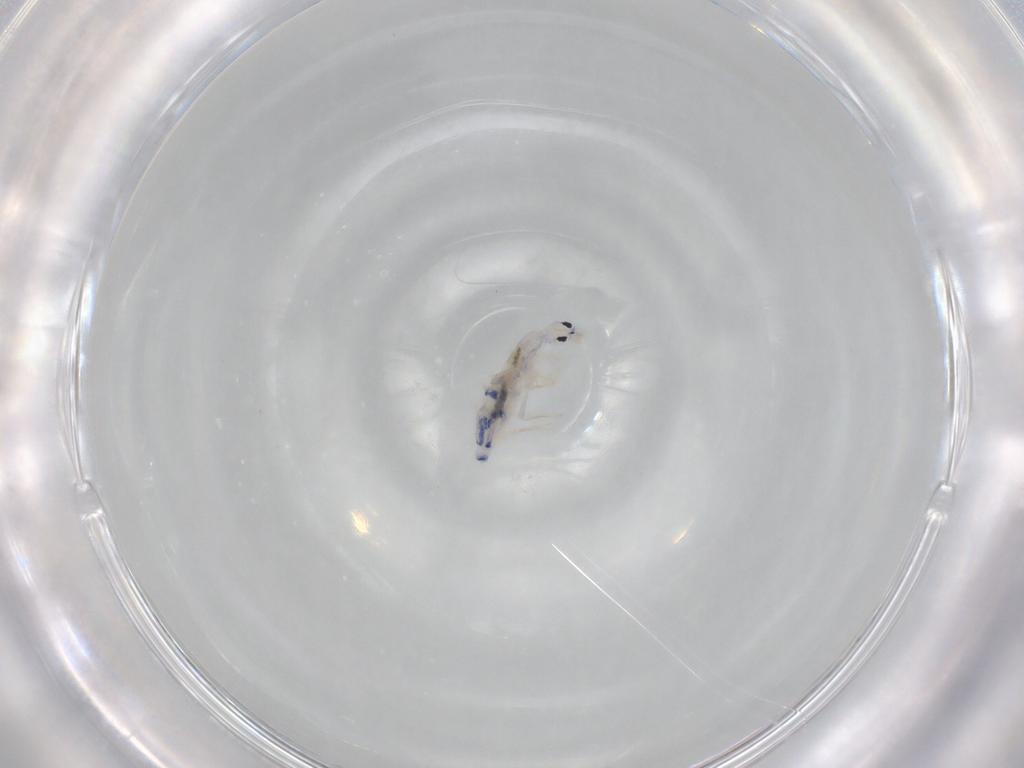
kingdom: Animalia
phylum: Arthropoda
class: Collembola
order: Entomobryomorpha
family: Entomobryidae
